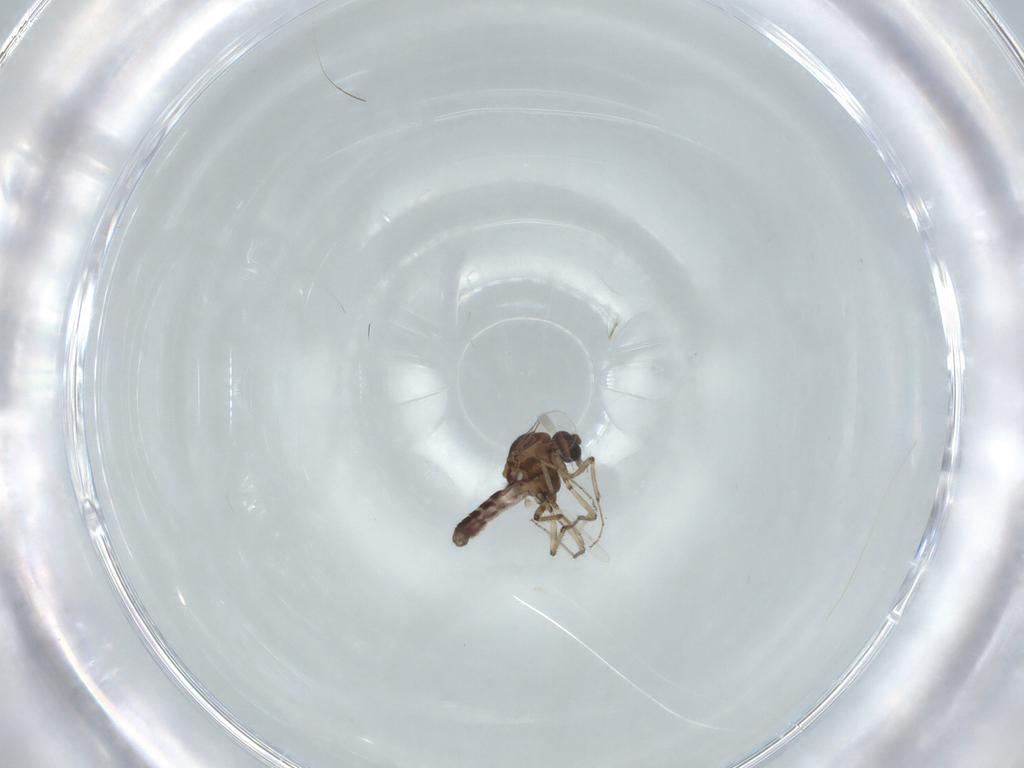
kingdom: Animalia
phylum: Arthropoda
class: Insecta
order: Diptera
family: Ceratopogonidae
